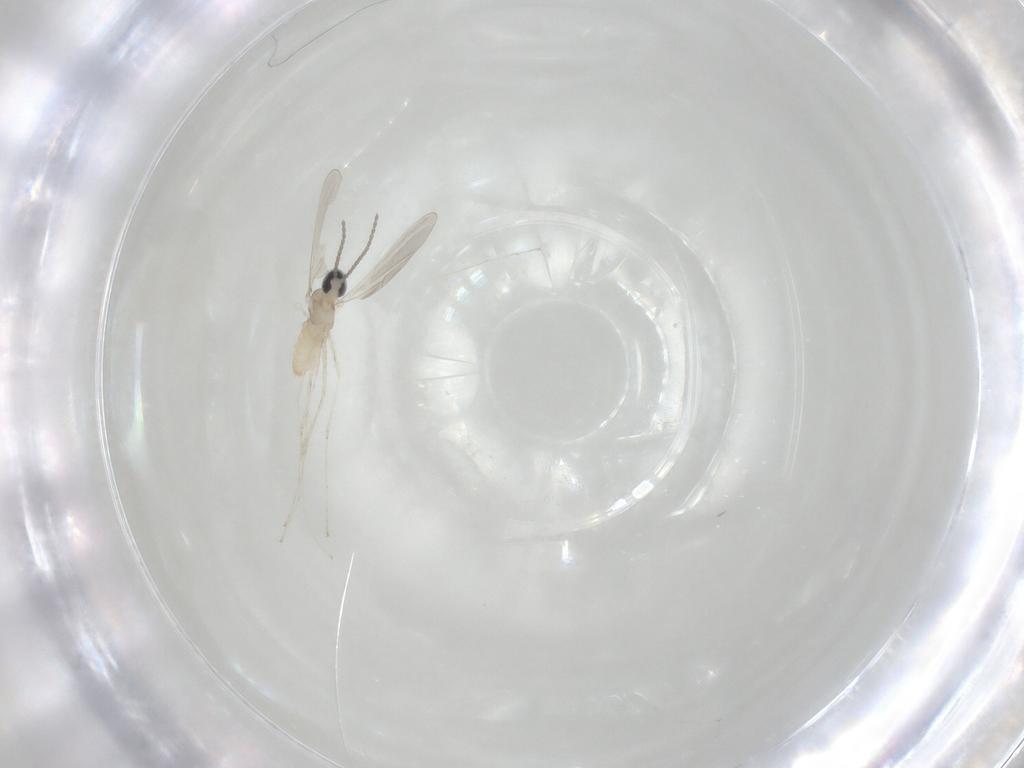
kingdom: Animalia
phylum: Arthropoda
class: Insecta
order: Diptera
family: Cecidomyiidae
